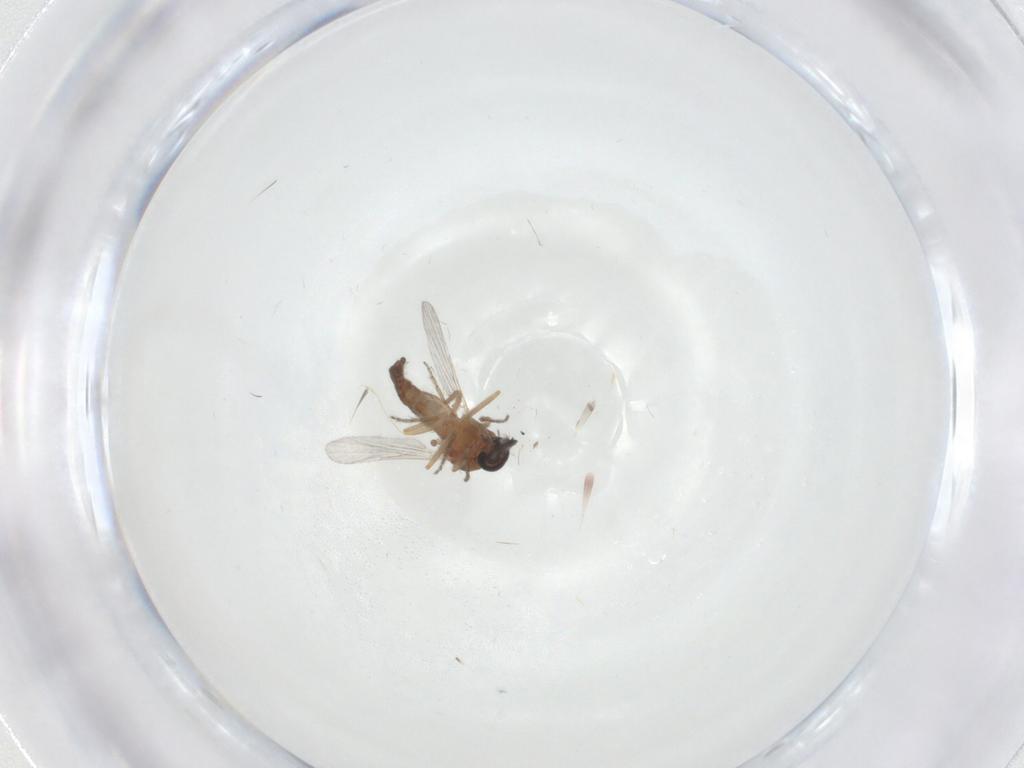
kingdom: Animalia
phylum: Arthropoda
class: Insecta
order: Diptera
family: Ceratopogonidae
